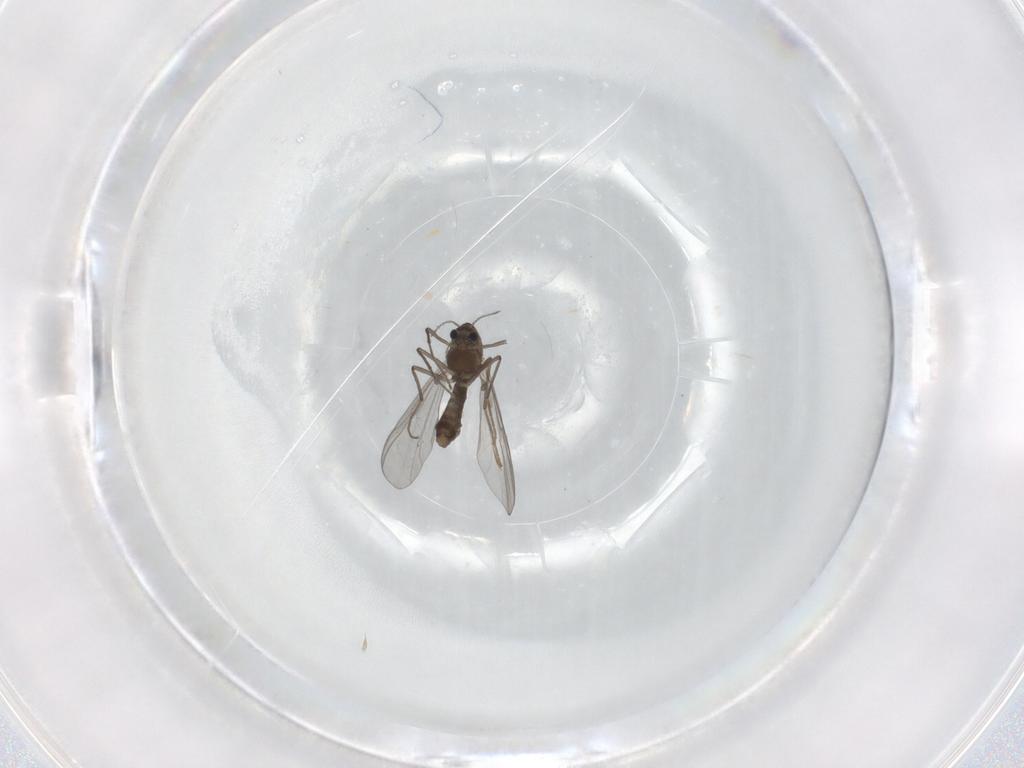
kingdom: Animalia
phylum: Arthropoda
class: Insecta
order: Diptera
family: Chironomidae
